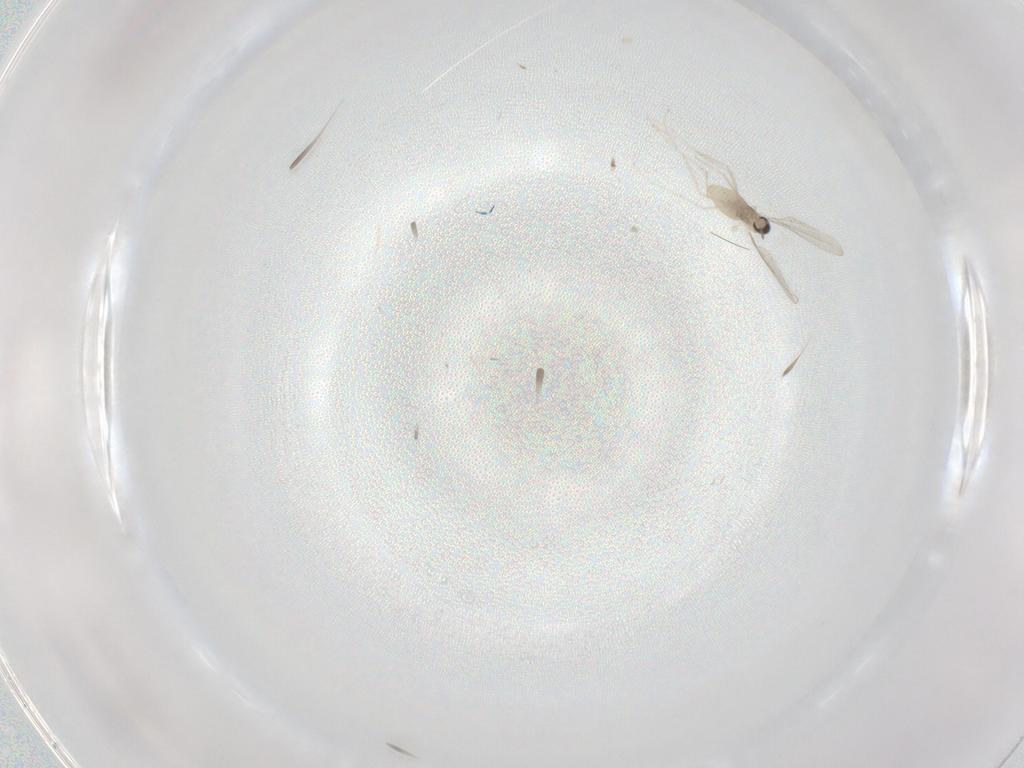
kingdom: Animalia
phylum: Arthropoda
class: Insecta
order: Diptera
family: Cecidomyiidae
